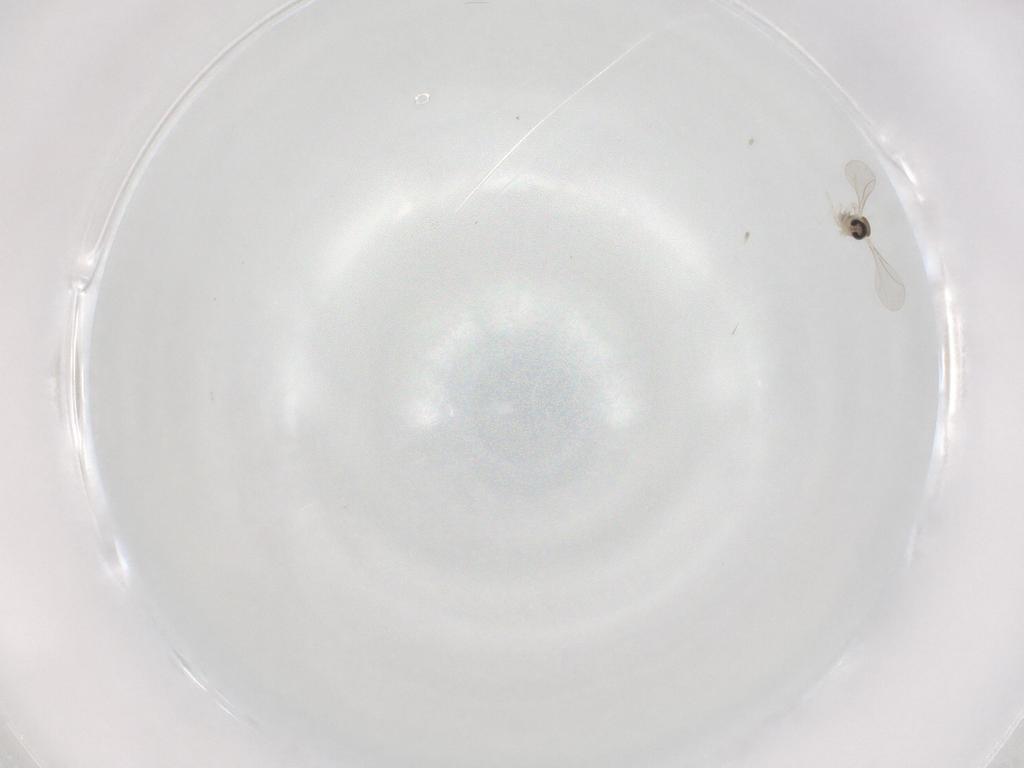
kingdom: Animalia
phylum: Arthropoda
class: Insecta
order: Diptera
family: Cecidomyiidae
